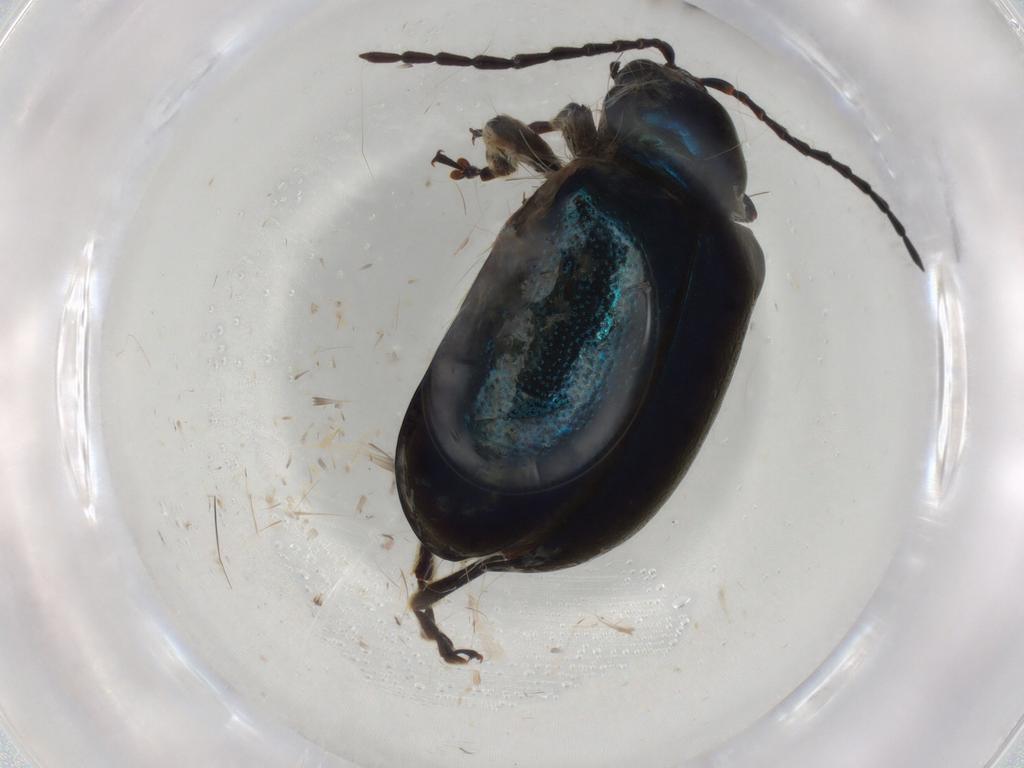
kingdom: Animalia
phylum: Arthropoda
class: Insecta
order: Coleoptera
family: Chrysomelidae
